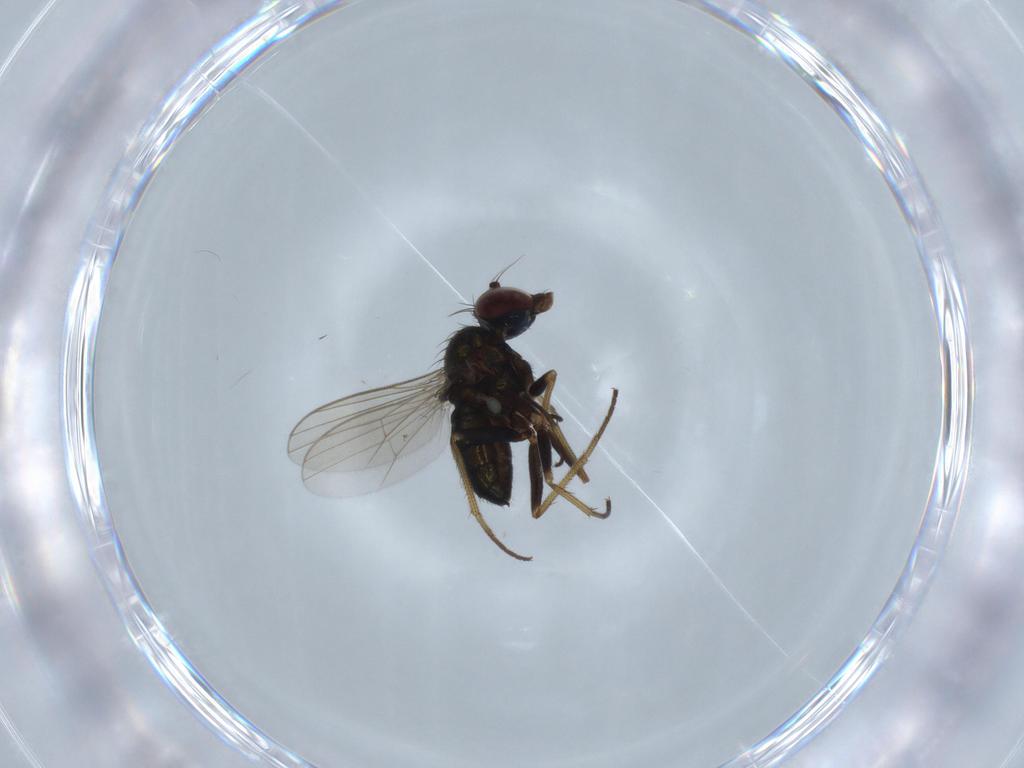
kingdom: Animalia
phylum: Arthropoda
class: Insecta
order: Diptera
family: Dolichopodidae
